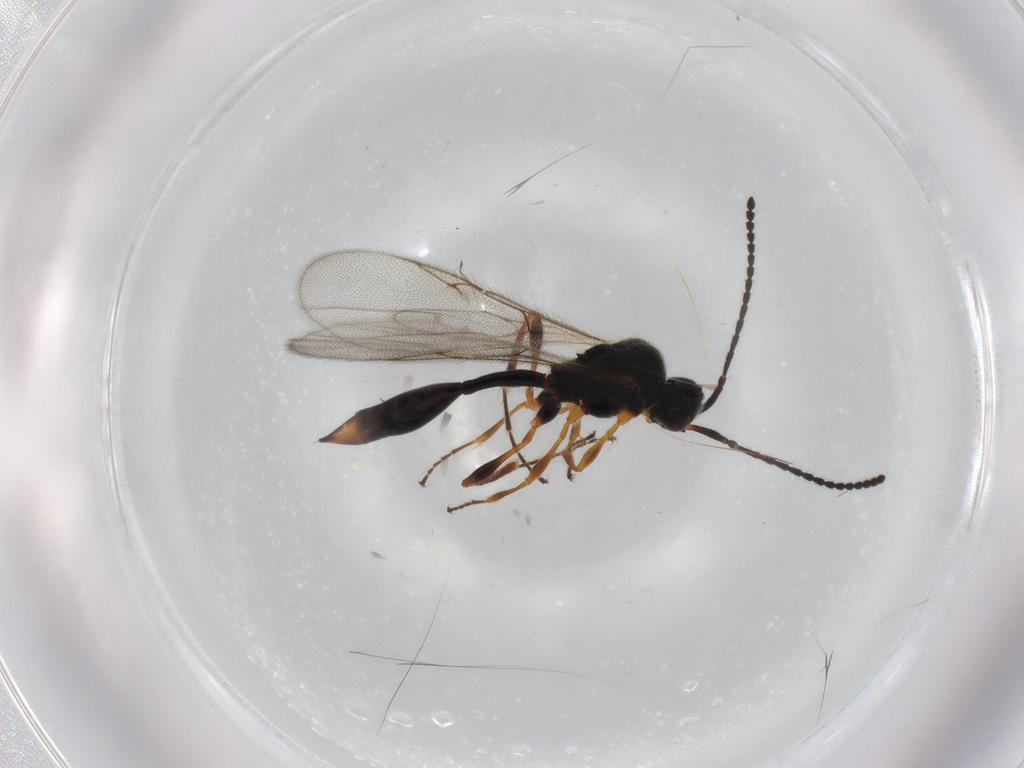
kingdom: Animalia
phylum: Arthropoda
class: Insecta
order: Hymenoptera
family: Diapriidae
